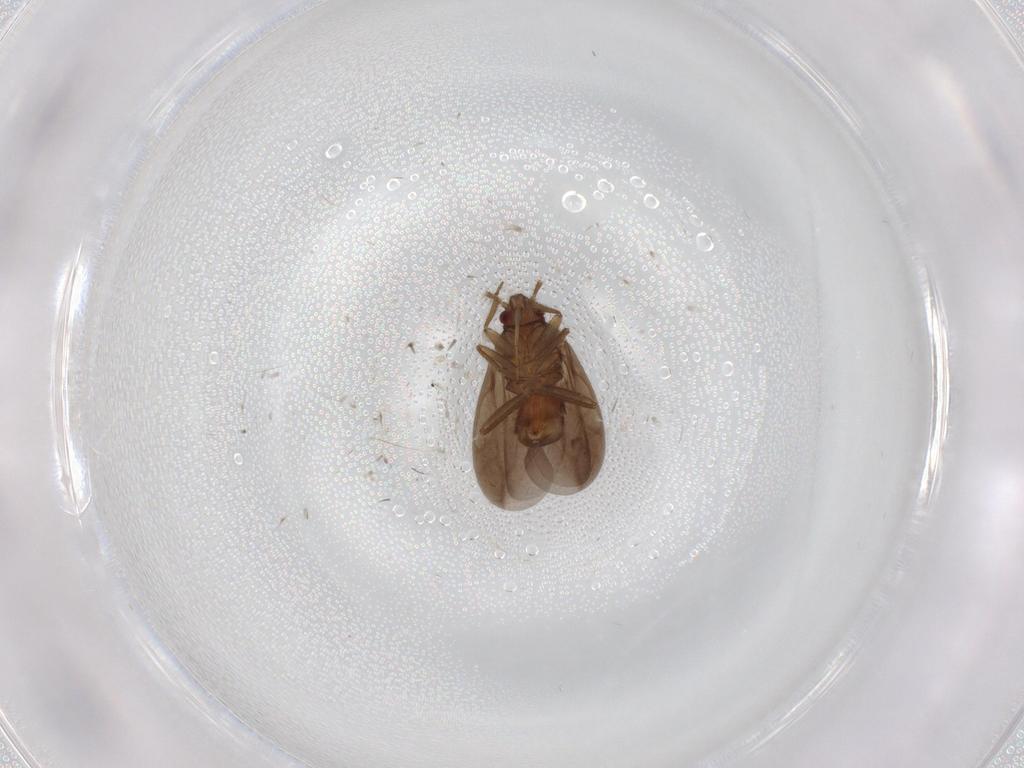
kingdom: Animalia
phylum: Arthropoda
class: Insecta
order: Hemiptera
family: Ceratocombidae
